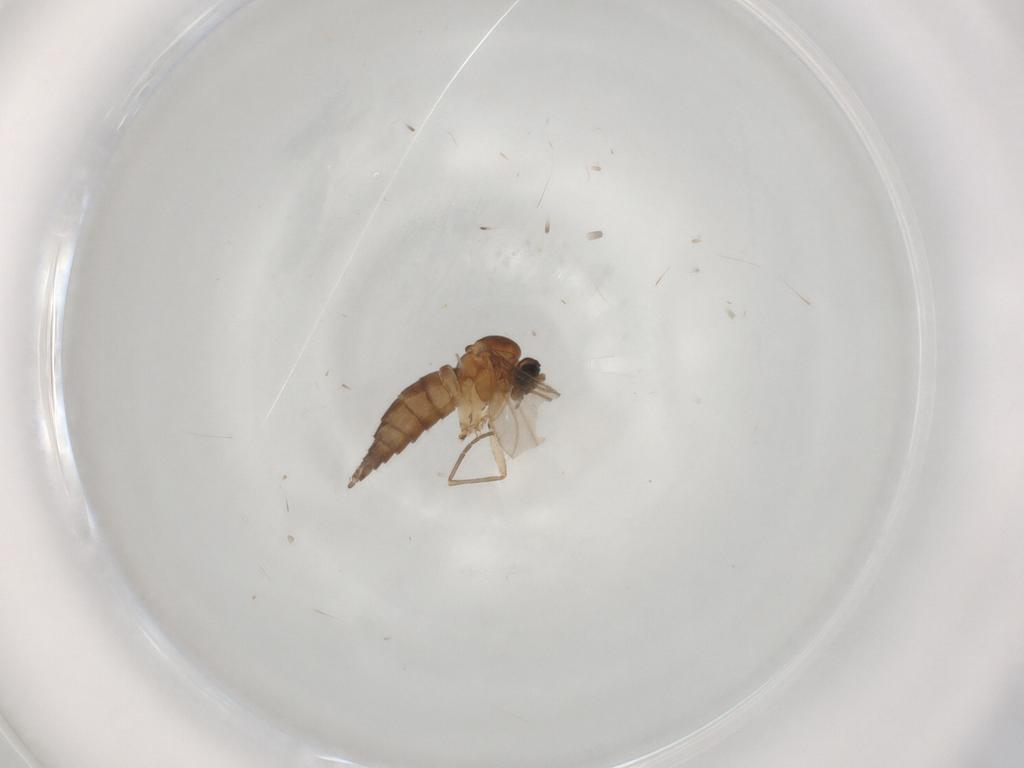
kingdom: Animalia
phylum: Arthropoda
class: Insecta
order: Diptera
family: Sciaridae
